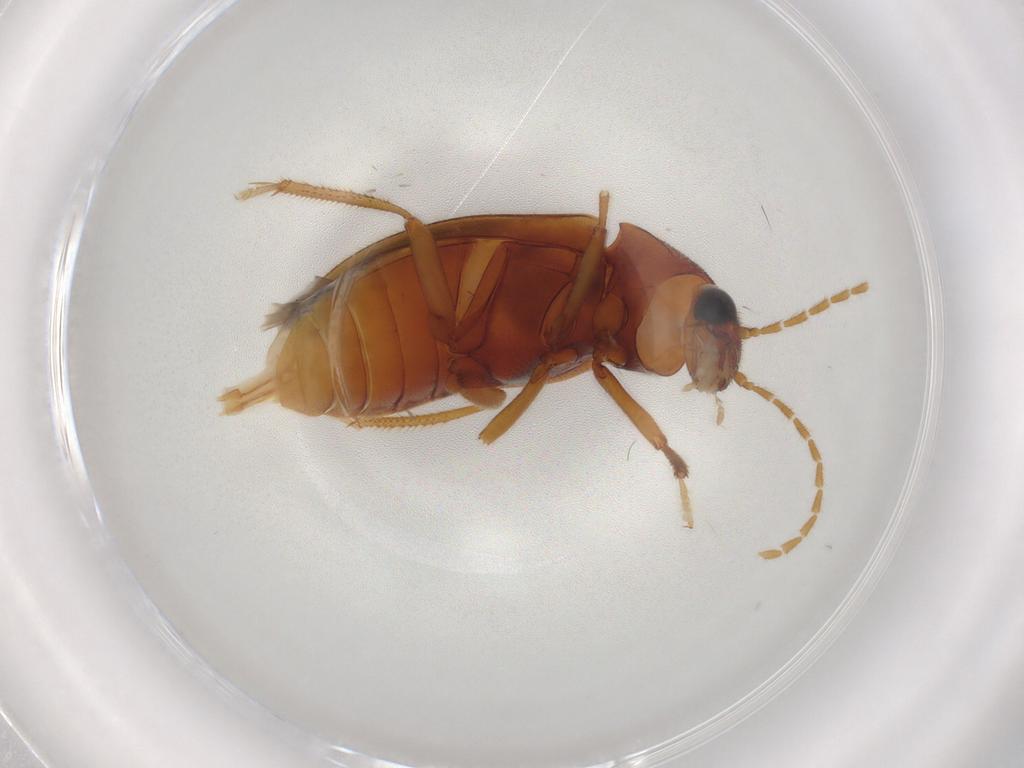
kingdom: Animalia
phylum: Arthropoda
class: Insecta
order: Coleoptera
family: Ptilodactylidae
